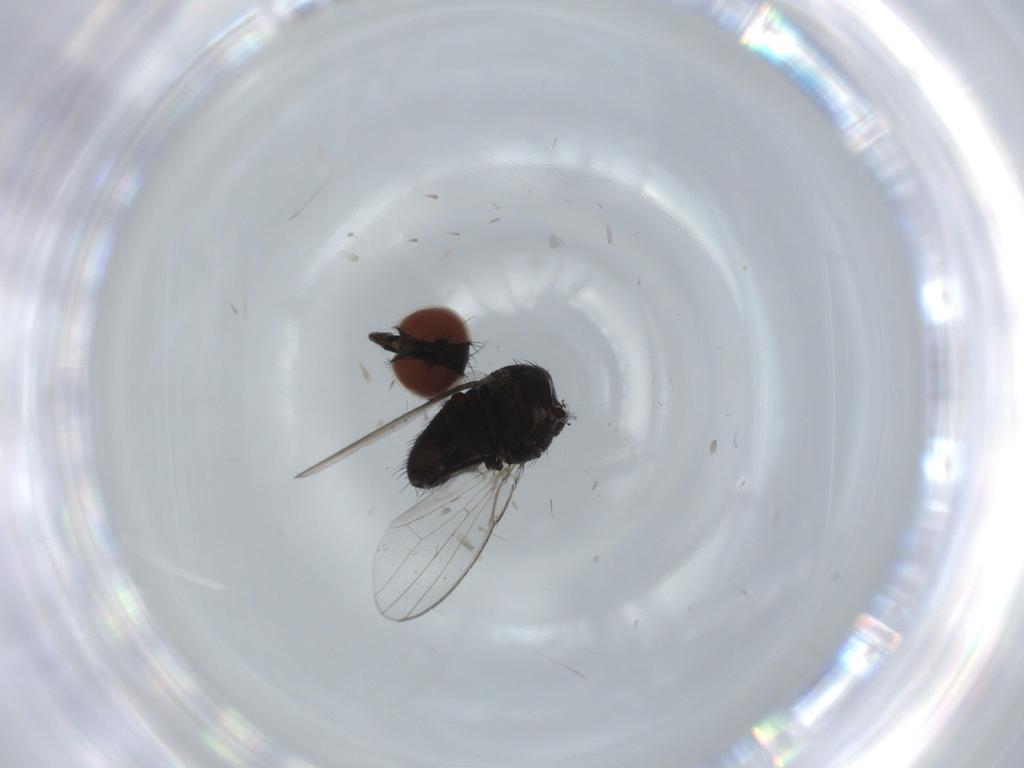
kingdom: Animalia
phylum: Arthropoda
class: Insecta
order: Diptera
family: Milichiidae
